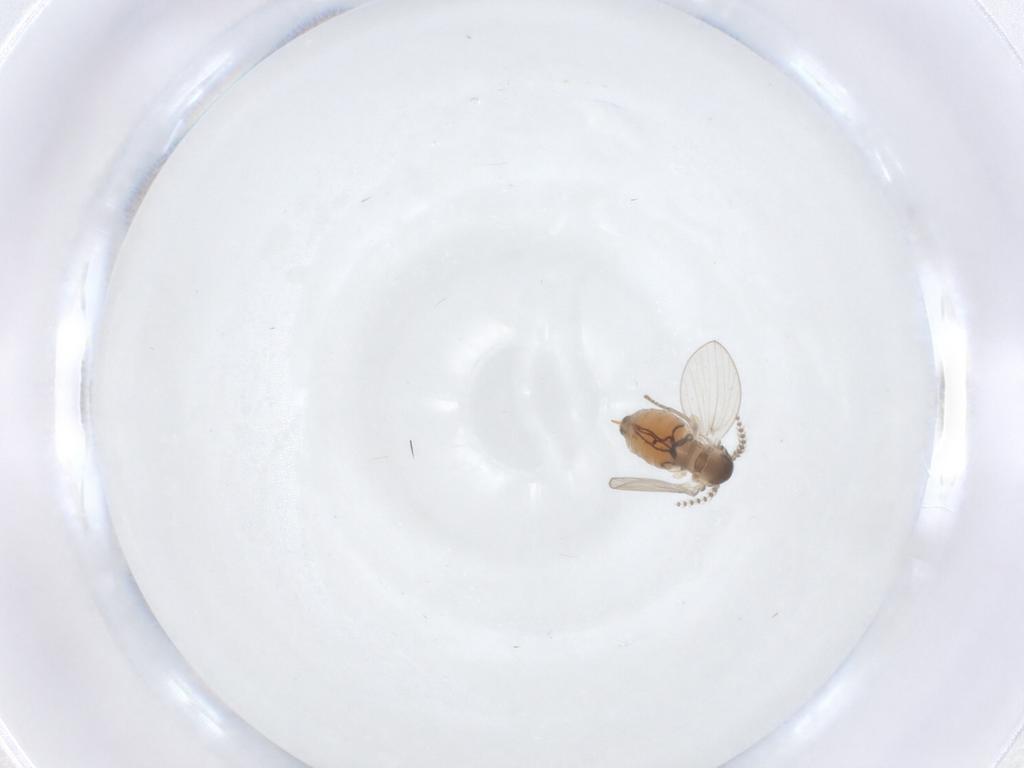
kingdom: Animalia
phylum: Arthropoda
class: Insecta
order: Diptera
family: Psychodidae
